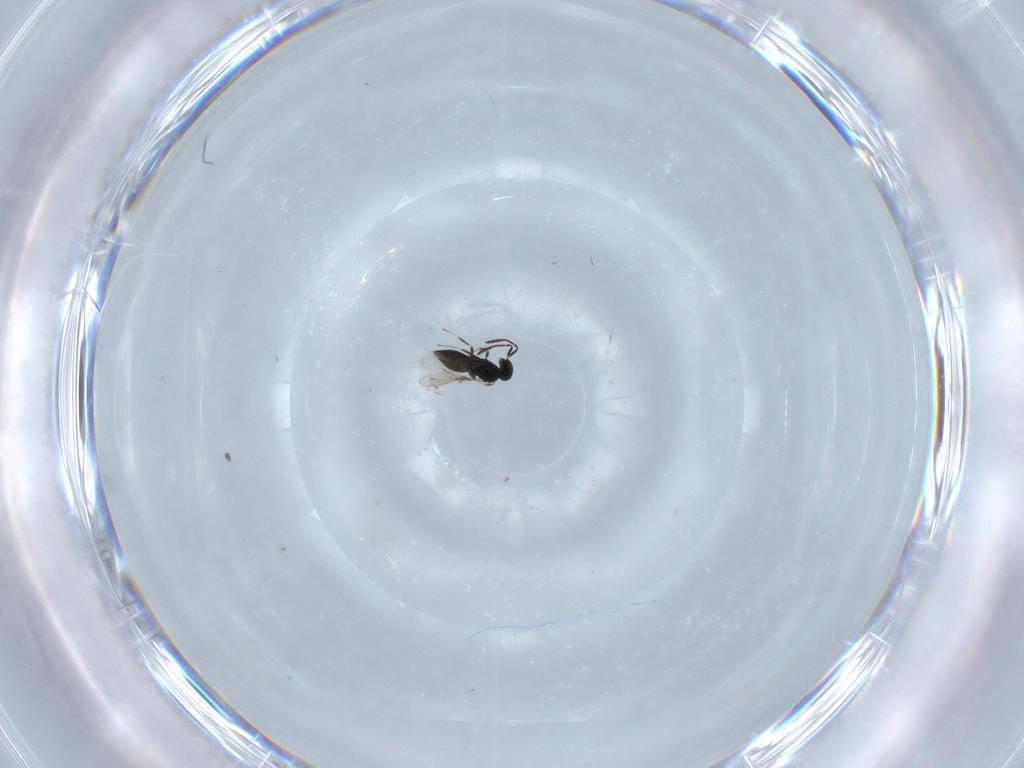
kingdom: Animalia
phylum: Arthropoda
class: Insecta
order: Hymenoptera
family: Scelionidae
